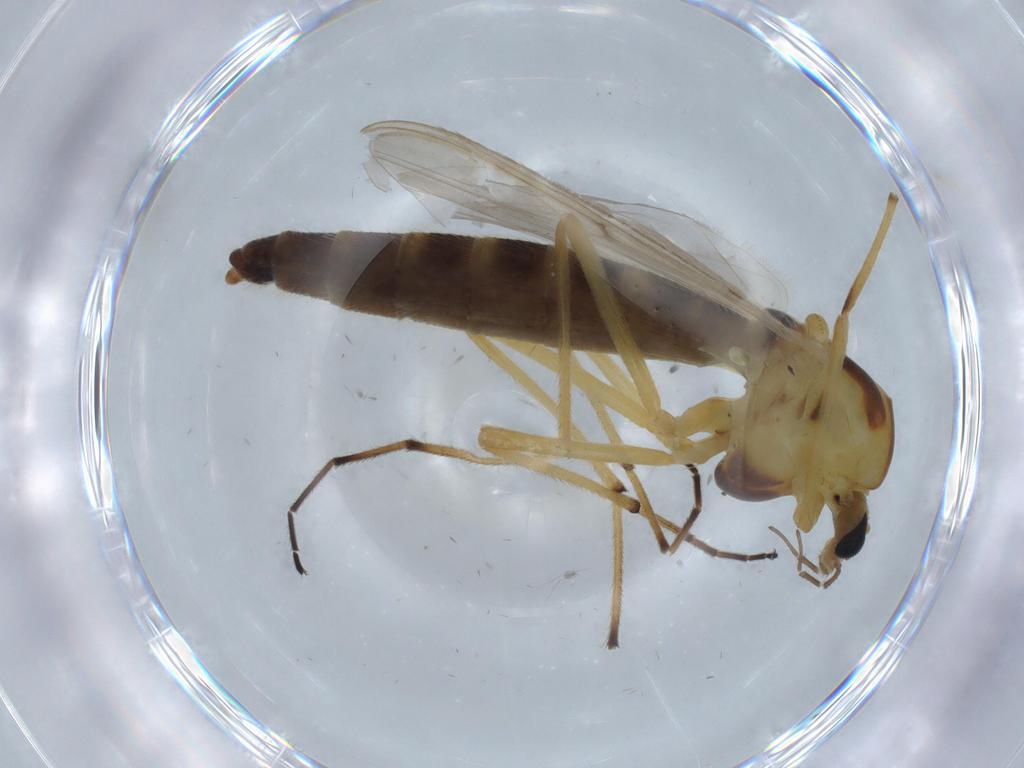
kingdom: Animalia
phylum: Arthropoda
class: Insecta
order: Diptera
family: Chironomidae
